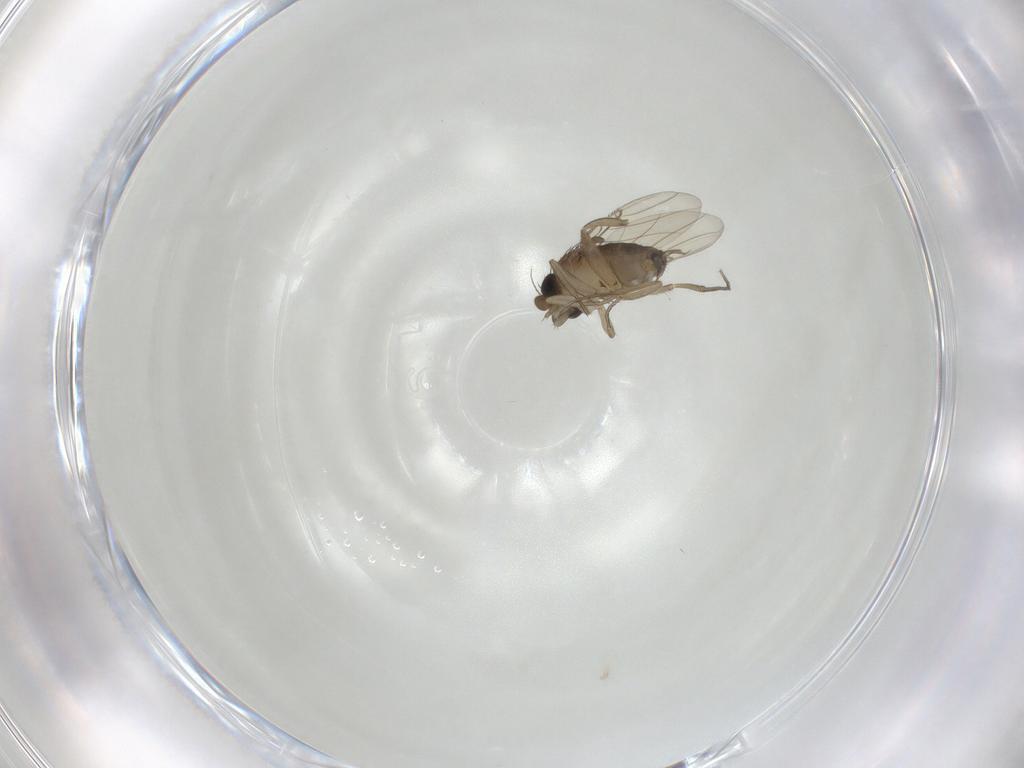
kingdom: Animalia
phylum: Arthropoda
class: Insecta
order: Diptera
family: Phoridae
